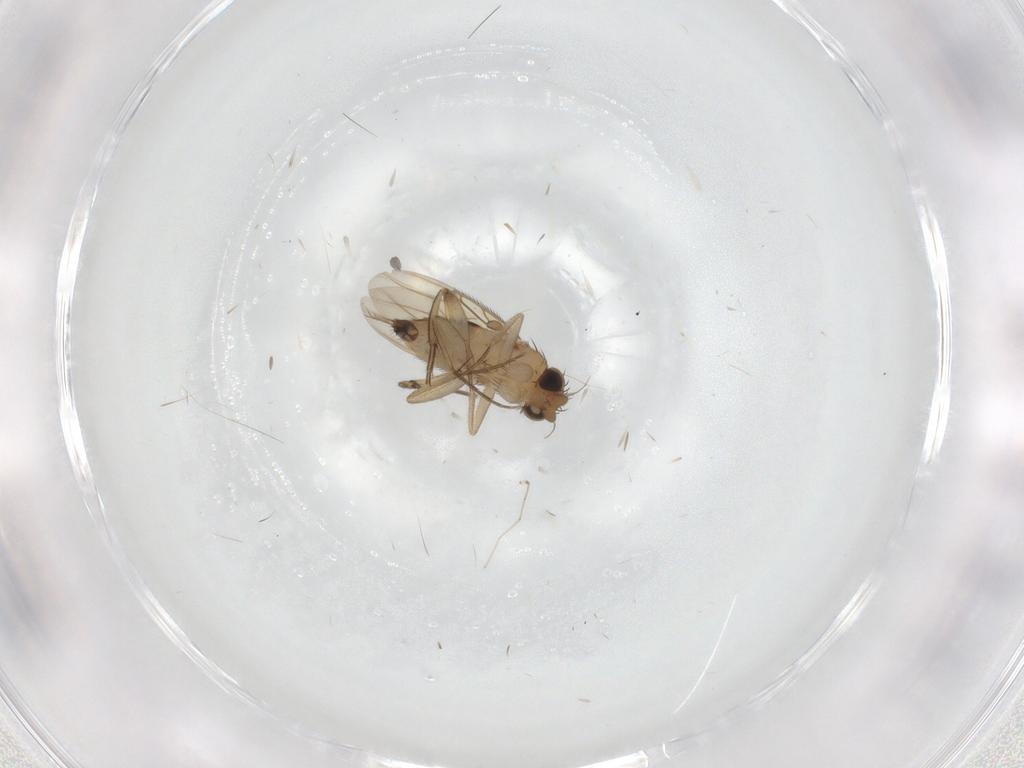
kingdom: Animalia
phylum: Arthropoda
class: Insecta
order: Diptera
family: Phoridae
